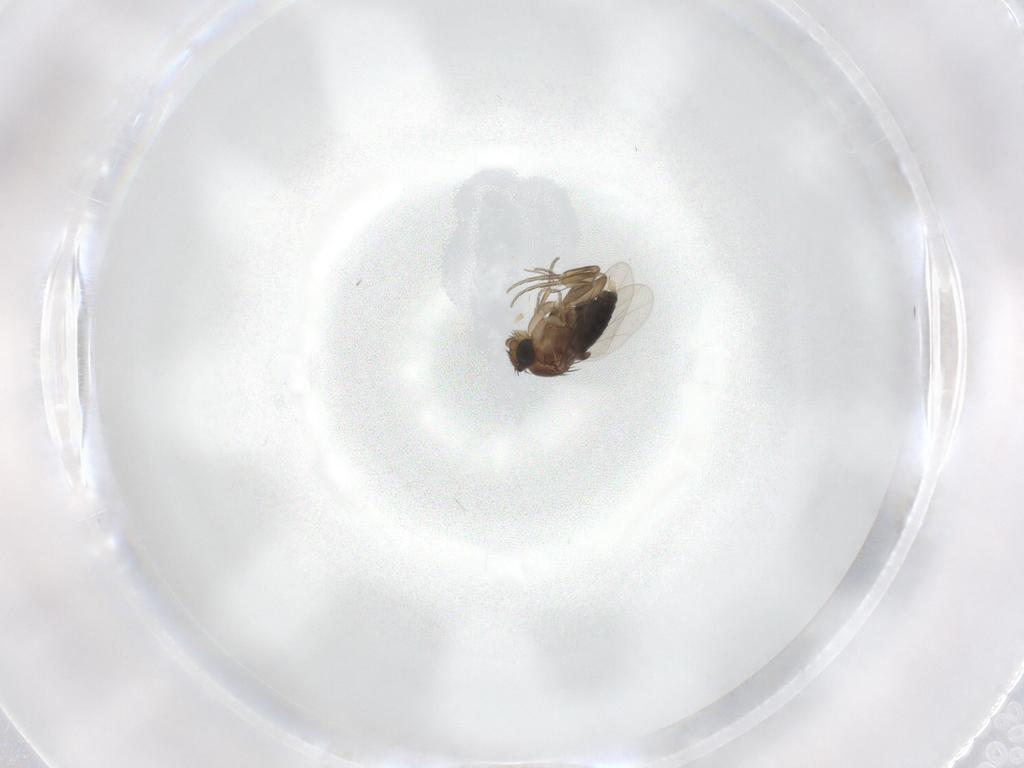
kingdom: Animalia
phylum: Arthropoda
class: Insecta
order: Diptera
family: Phoridae
